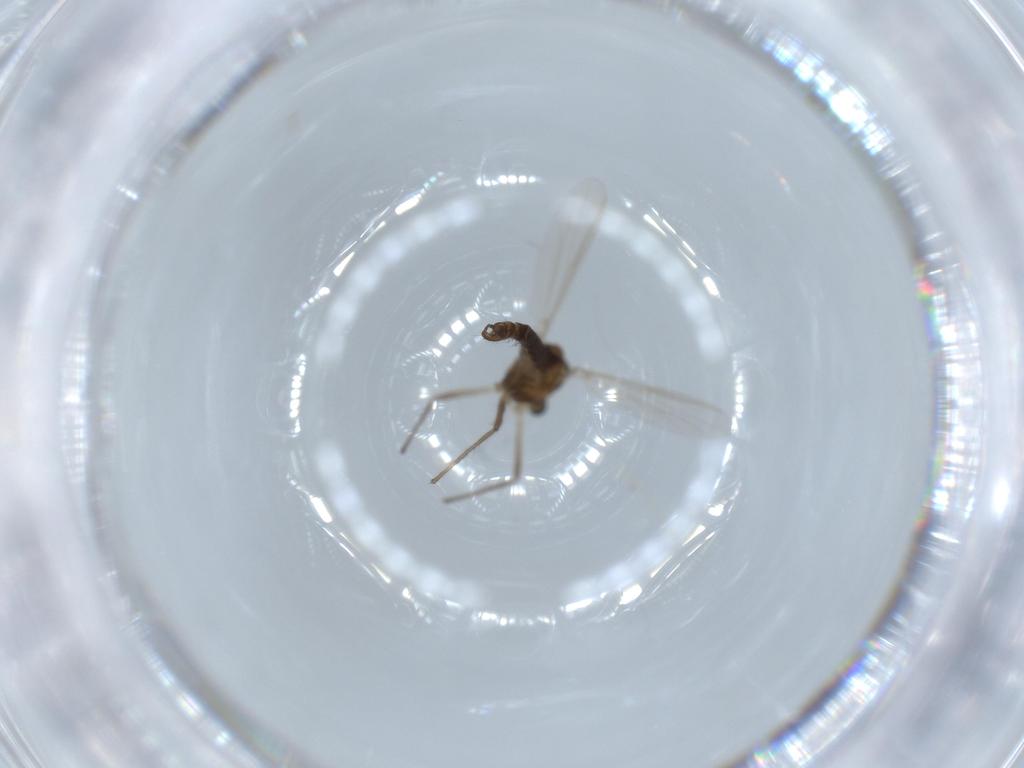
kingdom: Animalia
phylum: Arthropoda
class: Insecta
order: Diptera
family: Chironomidae
